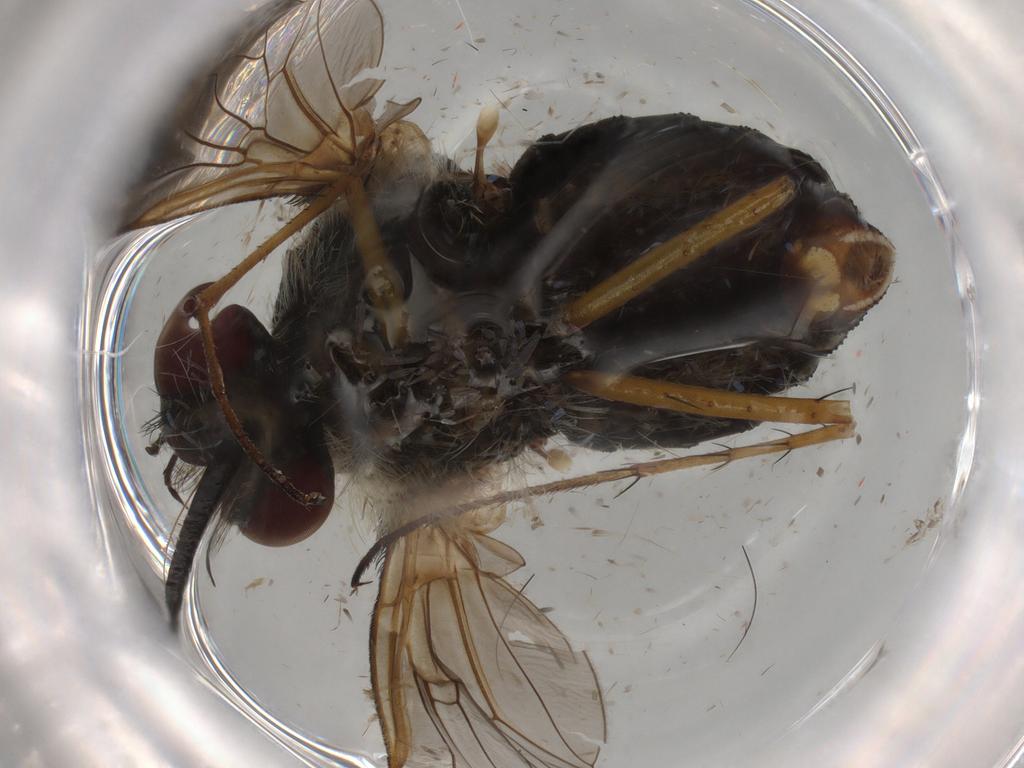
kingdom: Animalia
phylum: Arthropoda
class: Insecta
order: Diptera
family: Bombyliidae
